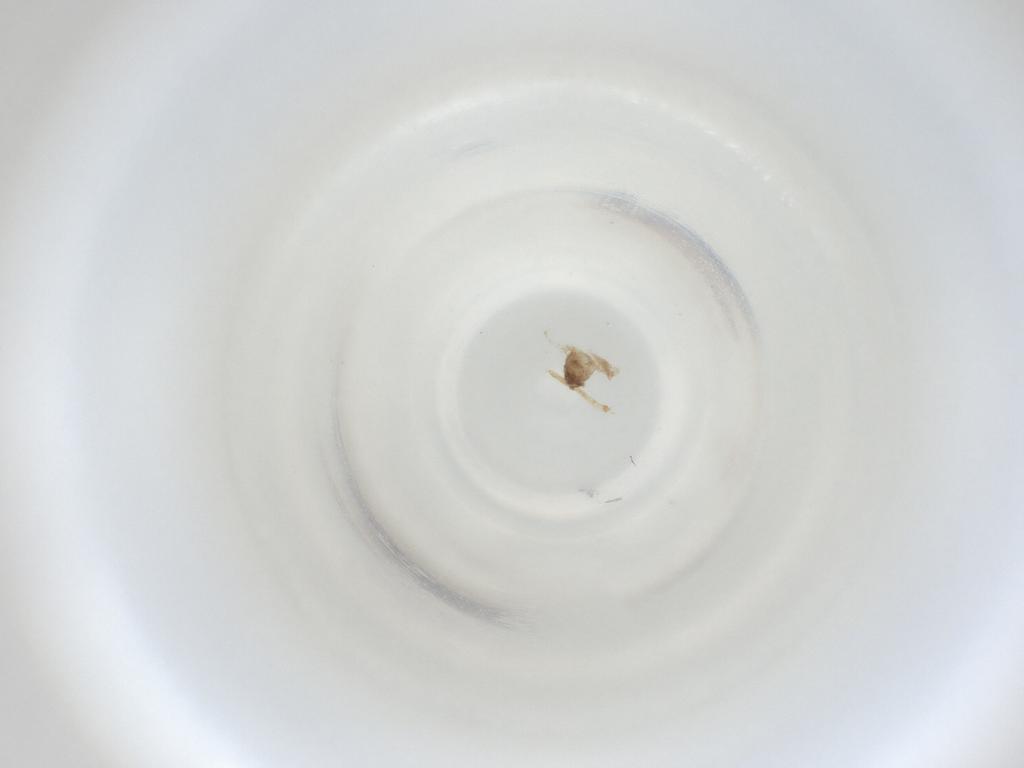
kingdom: Animalia
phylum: Arthropoda
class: Insecta
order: Diptera
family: Cecidomyiidae
